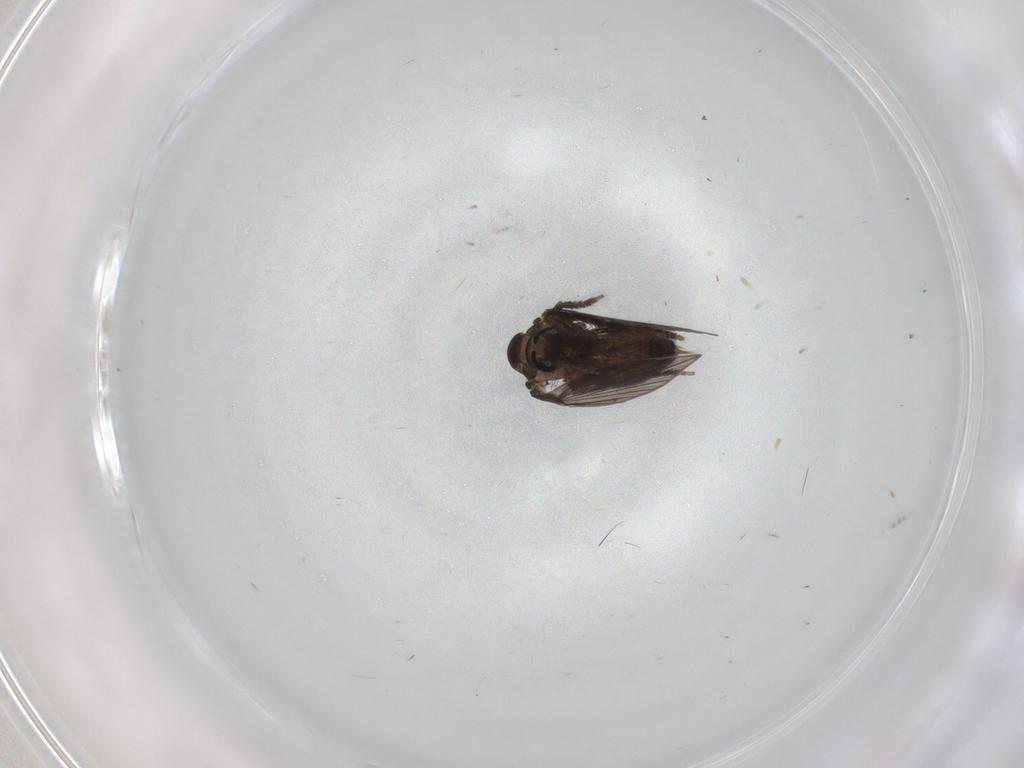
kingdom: Animalia
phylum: Arthropoda
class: Insecta
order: Diptera
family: Psychodidae
